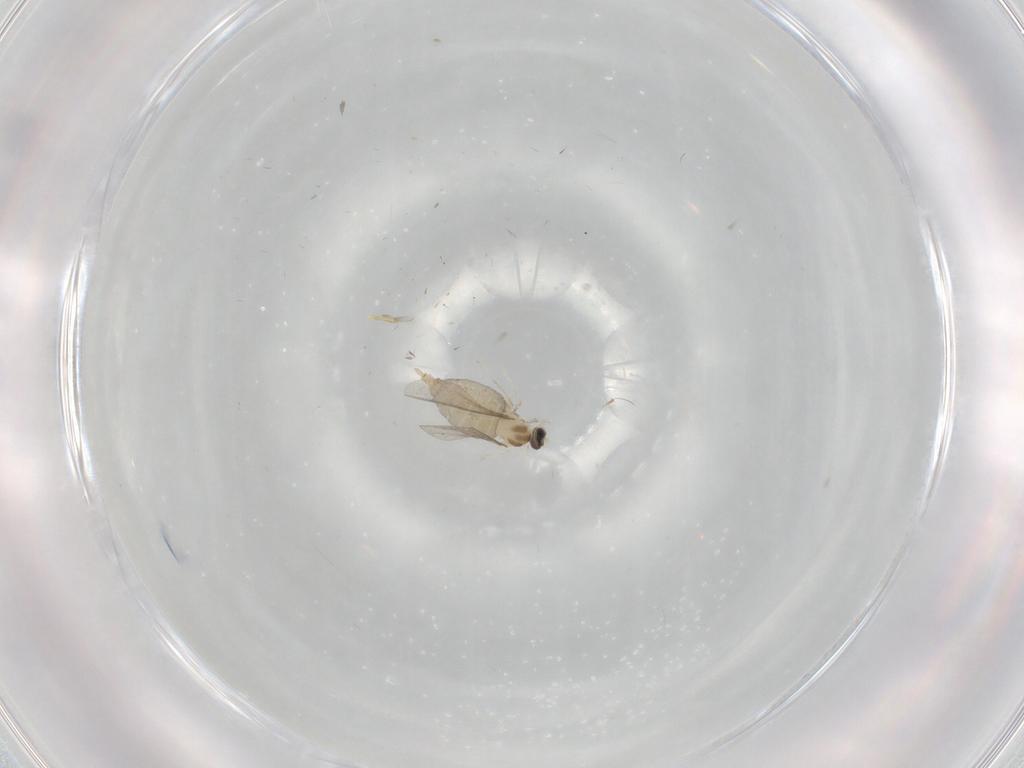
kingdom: Animalia
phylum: Arthropoda
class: Insecta
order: Diptera
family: Cecidomyiidae
